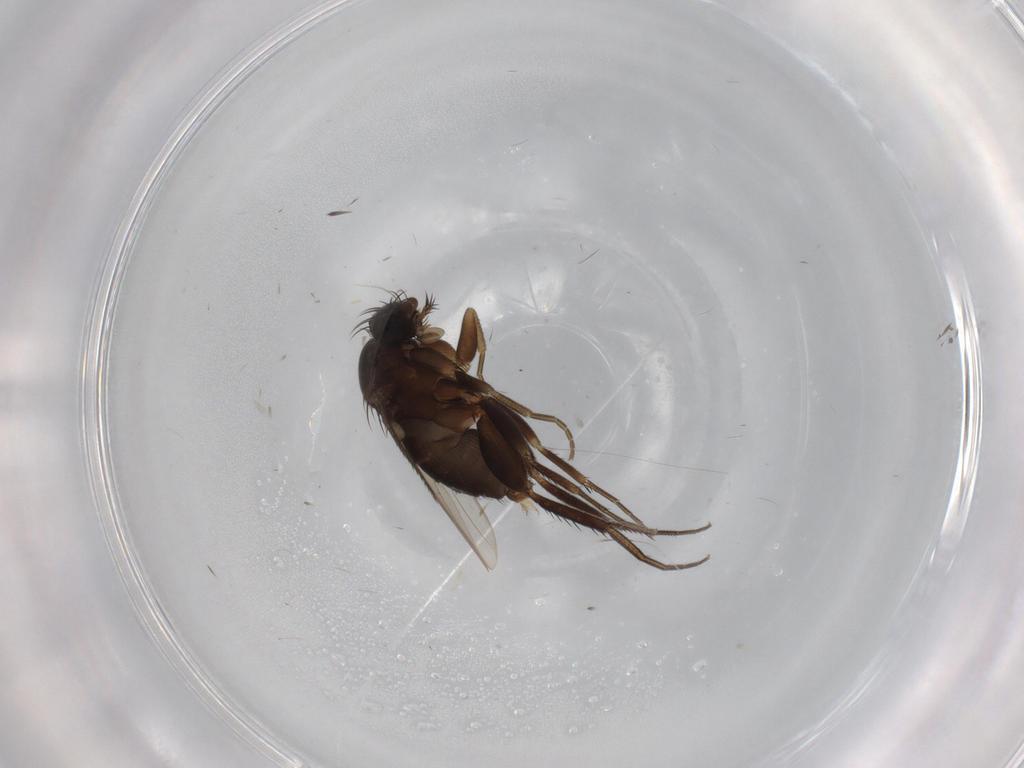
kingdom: Animalia
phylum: Arthropoda
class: Insecta
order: Diptera
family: Phoridae
